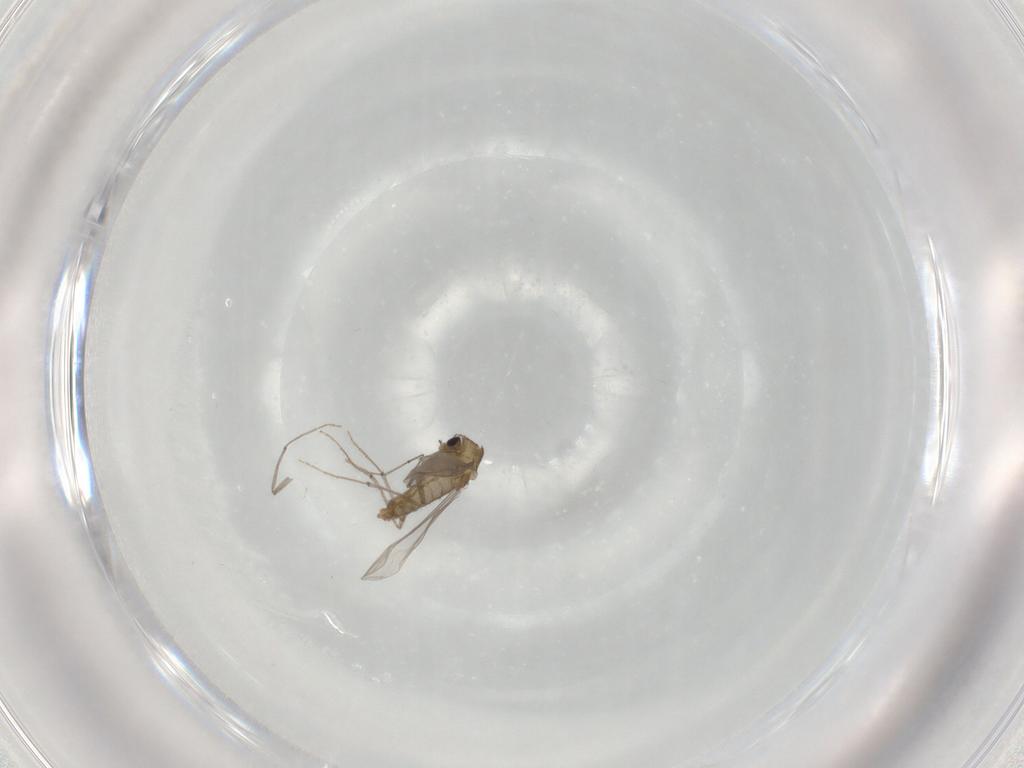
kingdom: Animalia
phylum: Arthropoda
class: Insecta
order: Diptera
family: Chironomidae
